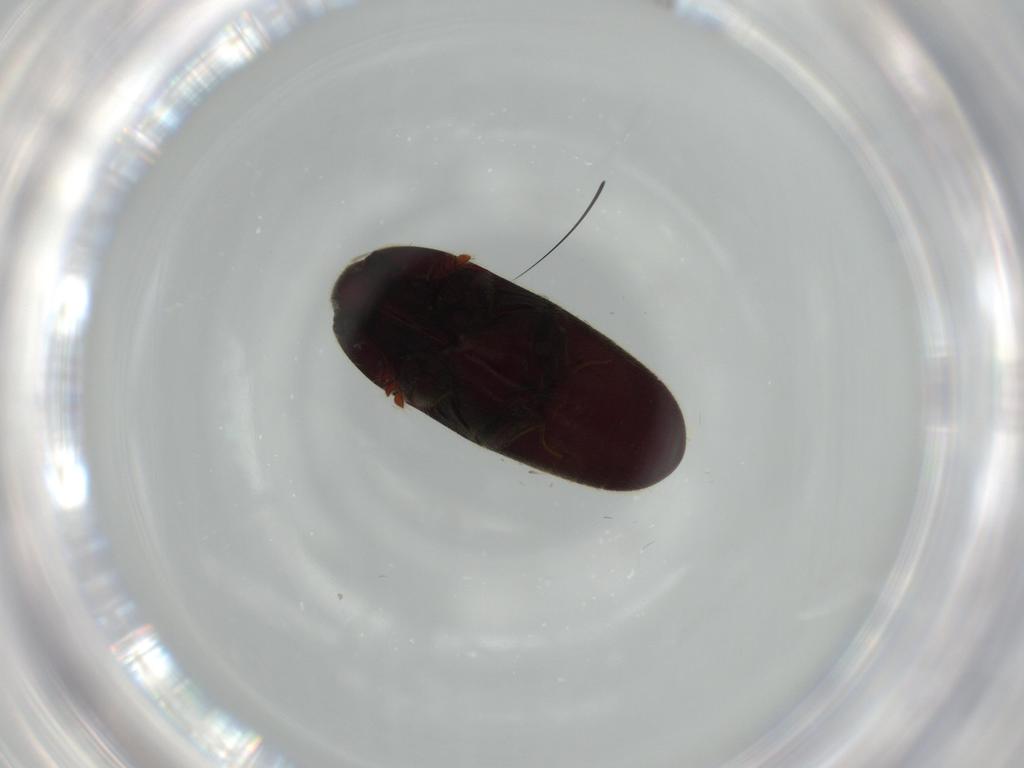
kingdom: Animalia
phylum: Arthropoda
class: Insecta
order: Coleoptera
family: Throscidae
